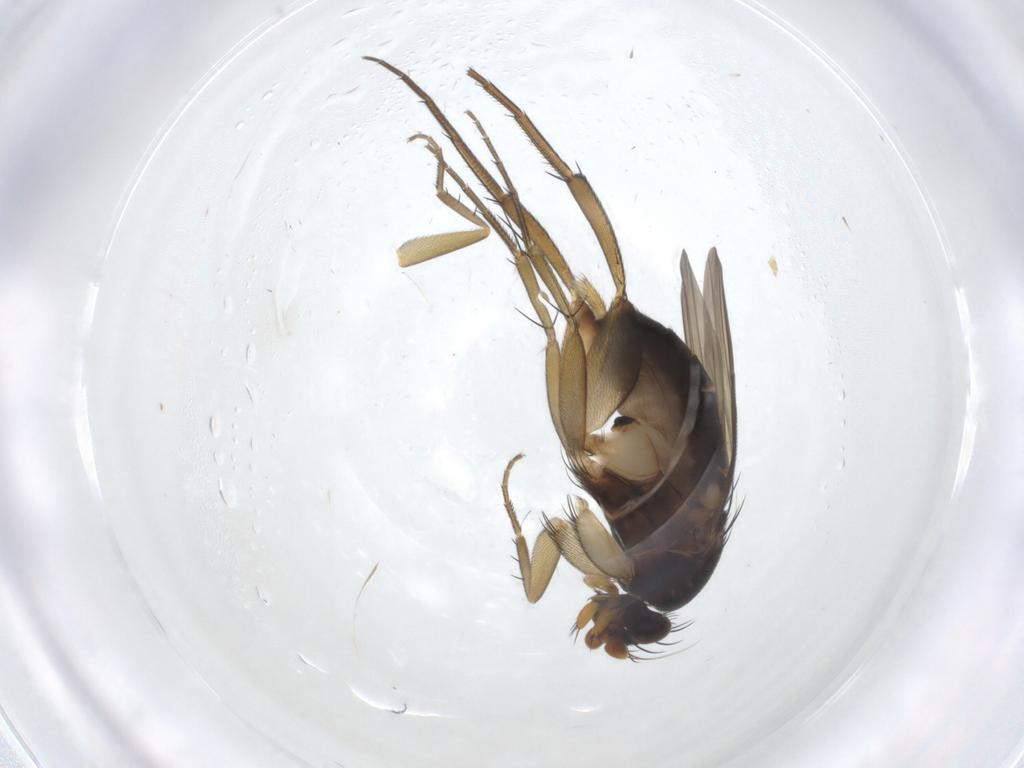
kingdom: Animalia
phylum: Arthropoda
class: Insecta
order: Diptera
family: Phoridae
